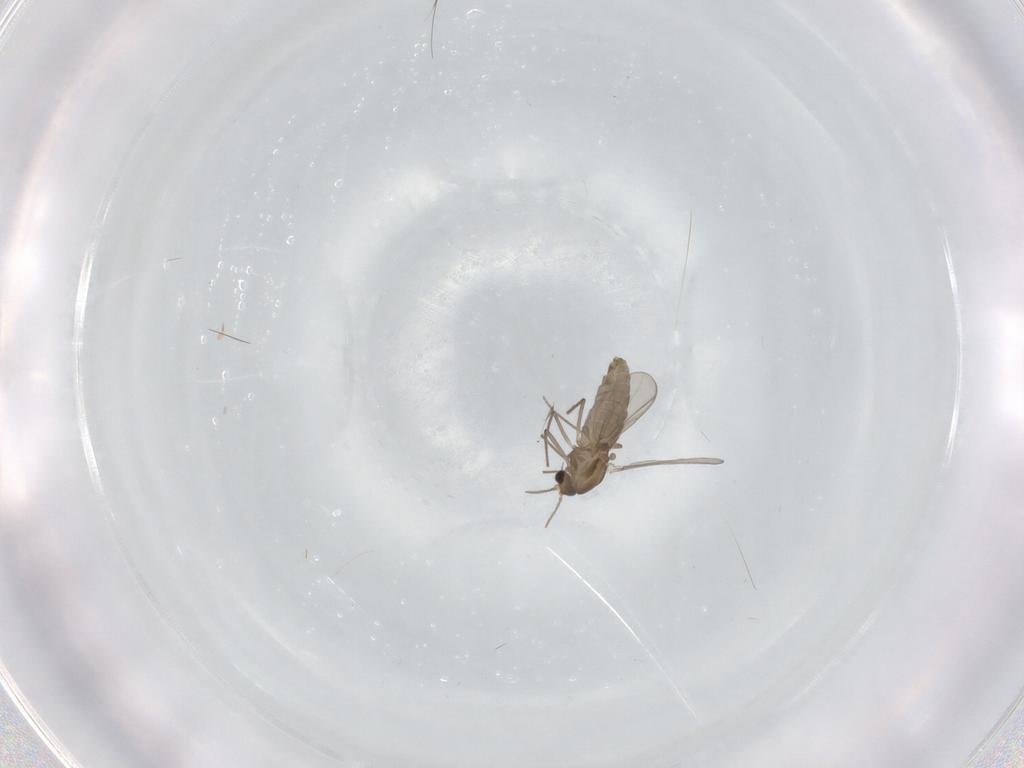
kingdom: Animalia
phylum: Arthropoda
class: Insecta
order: Diptera
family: Chironomidae
